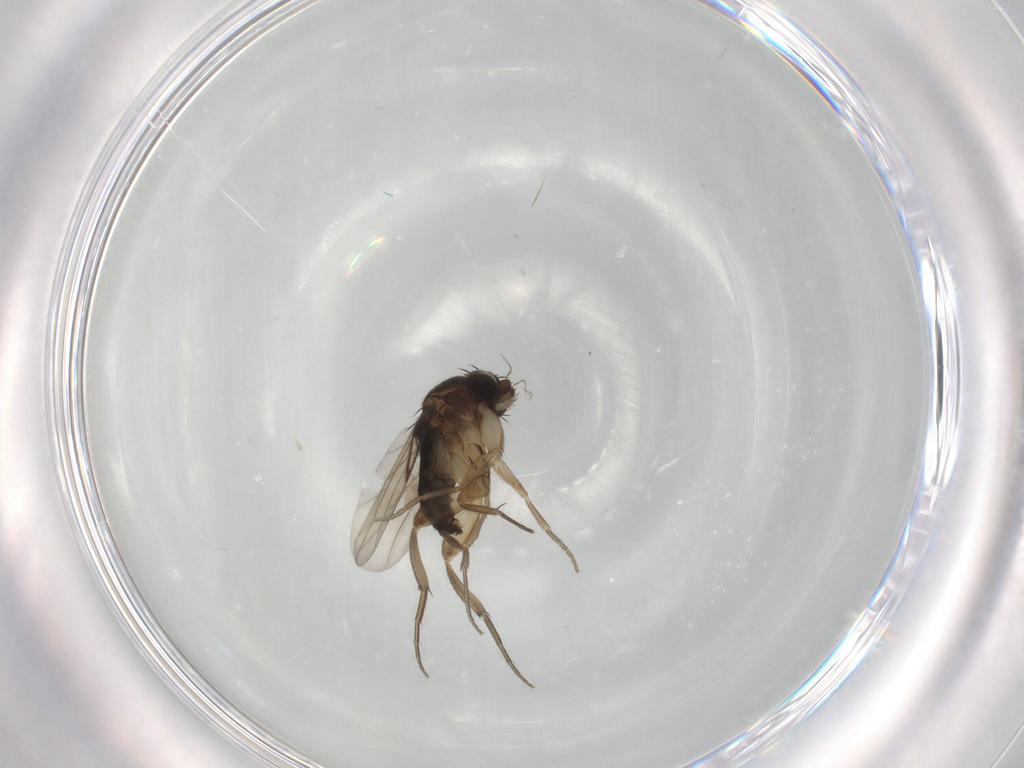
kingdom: Animalia
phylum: Arthropoda
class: Insecta
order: Diptera
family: Phoridae
